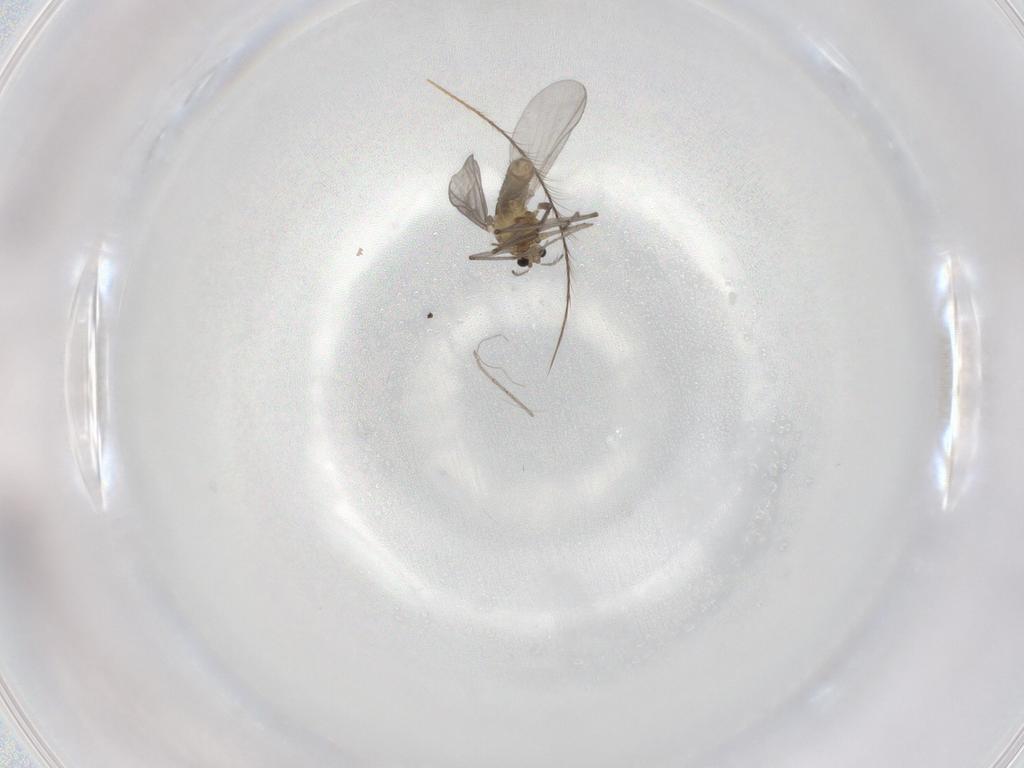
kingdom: Animalia
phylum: Arthropoda
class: Insecta
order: Diptera
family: Chironomidae
